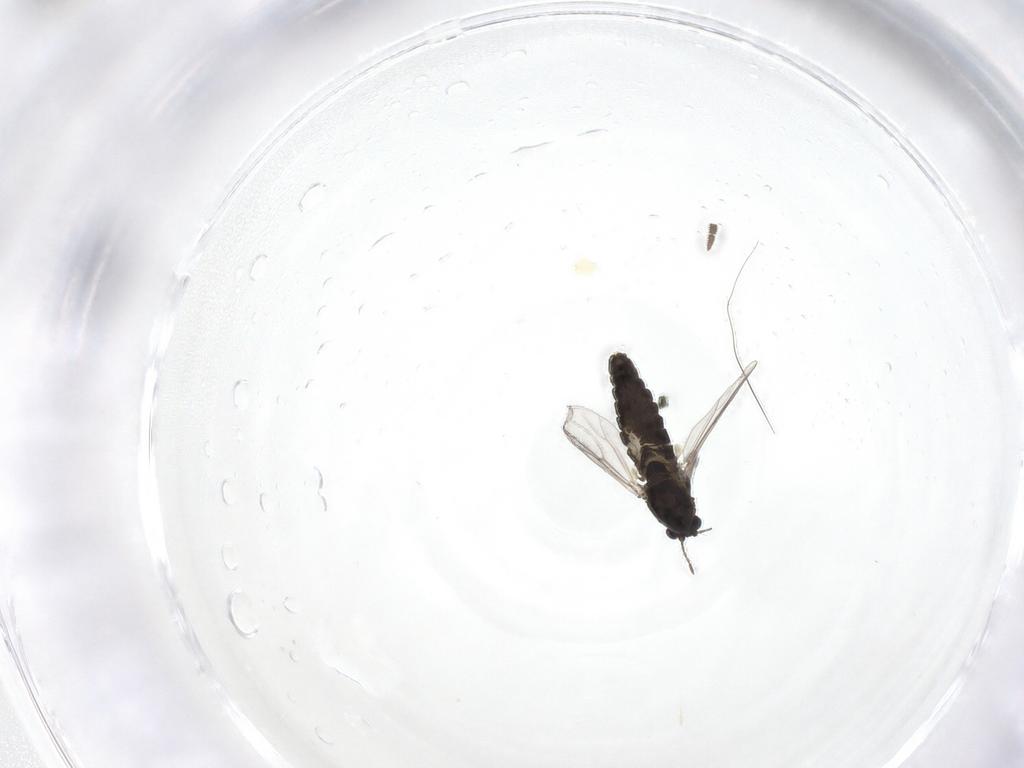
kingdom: Animalia
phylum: Arthropoda
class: Insecta
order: Diptera
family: Chironomidae
